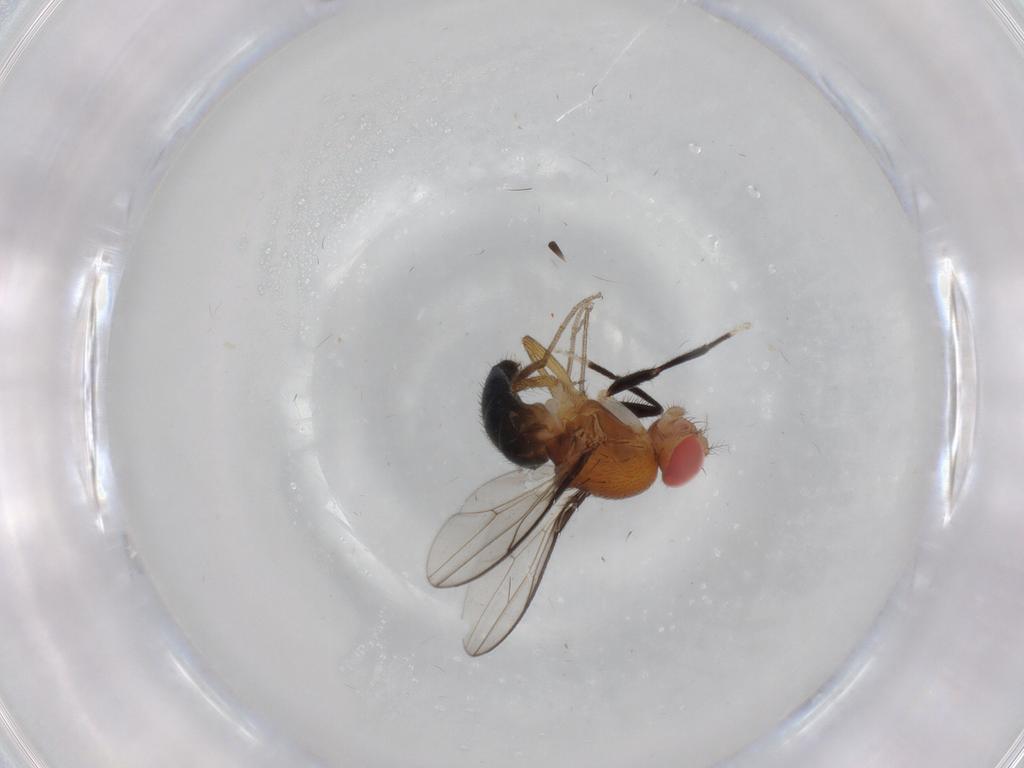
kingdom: Animalia
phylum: Arthropoda
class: Insecta
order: Diptera
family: Drosophilidae
